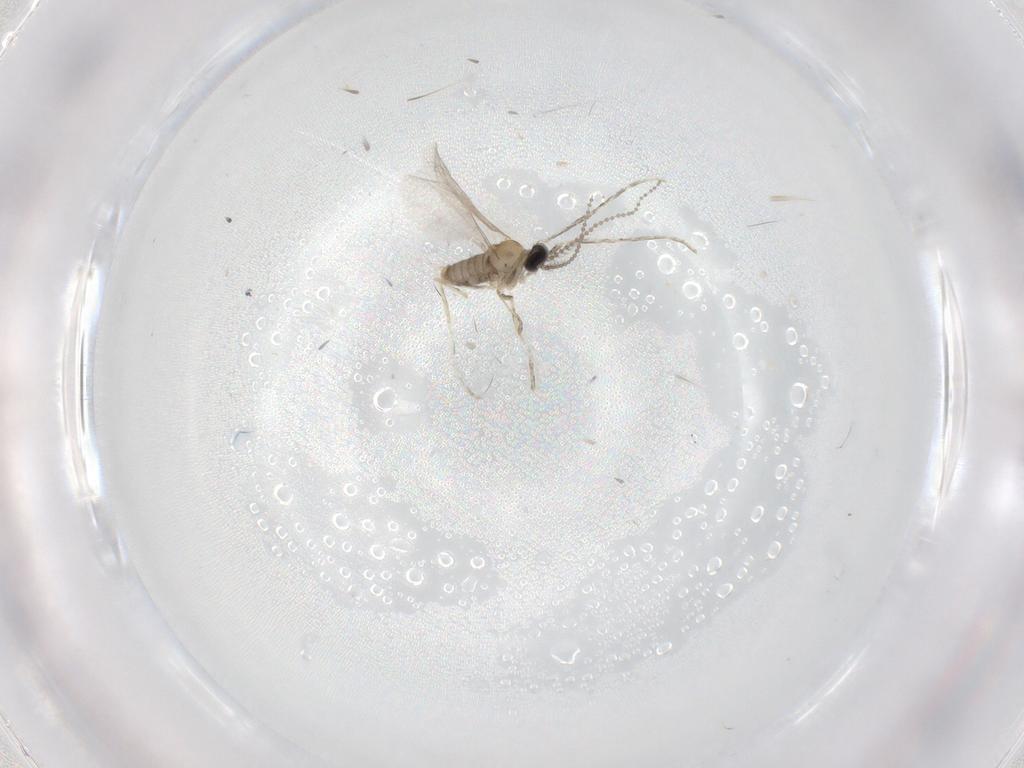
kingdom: Animalia
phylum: Arthropoda
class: Insecta
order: Diptera
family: Cecidomyiidae
